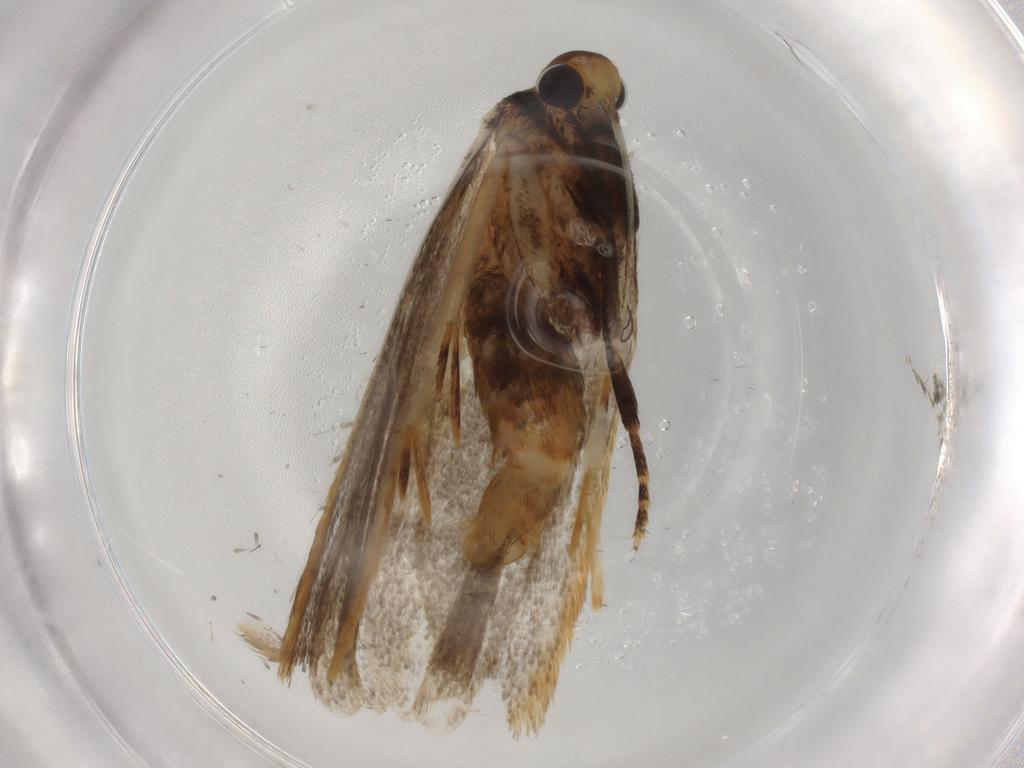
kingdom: Animalia
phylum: Arthropoda
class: Insecta
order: Lepidoptera
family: Lecithoceridae
